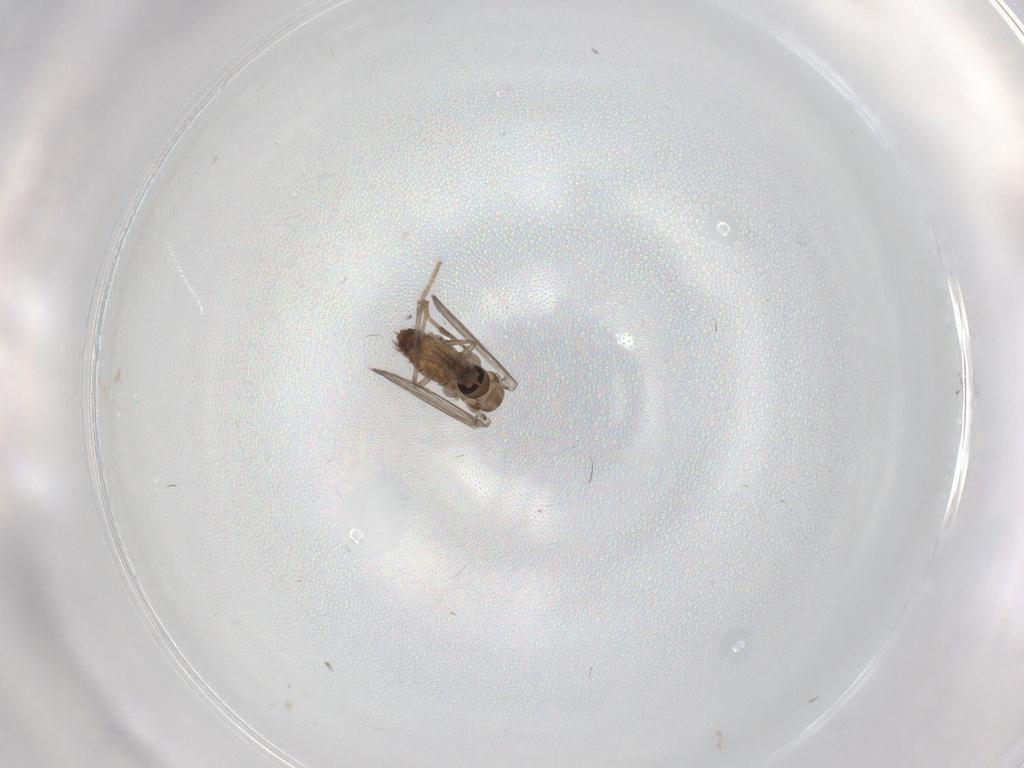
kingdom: Animalia
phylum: Arthropoda
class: Insecta
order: Diptera
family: Psychodidae
